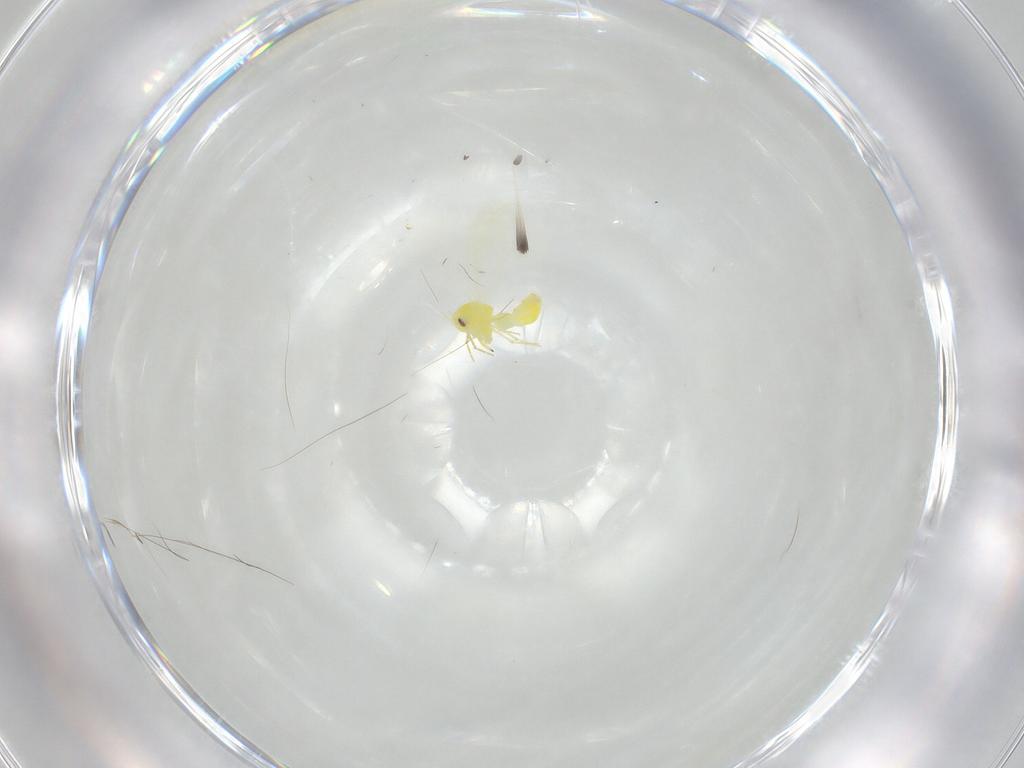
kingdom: Animalia
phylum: Arthropoda
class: Insecta
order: Hemiptera
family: Aleyrodidae
